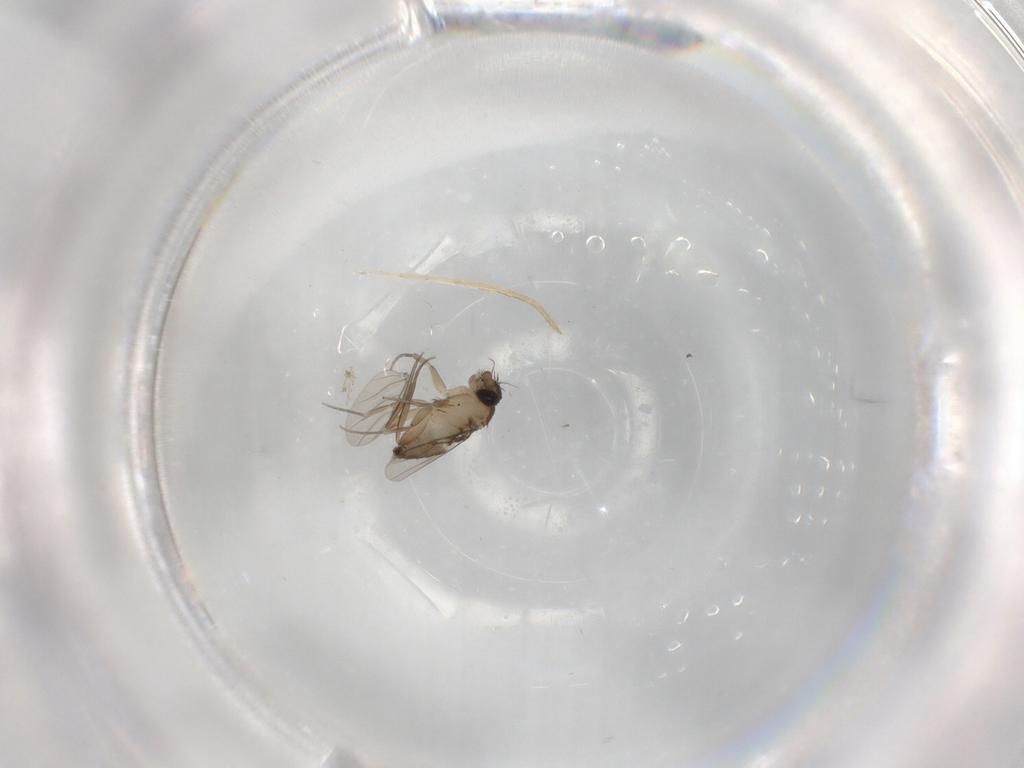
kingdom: Animalia
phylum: Arthropoda
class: Insecta
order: Diptera
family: Phoridae
